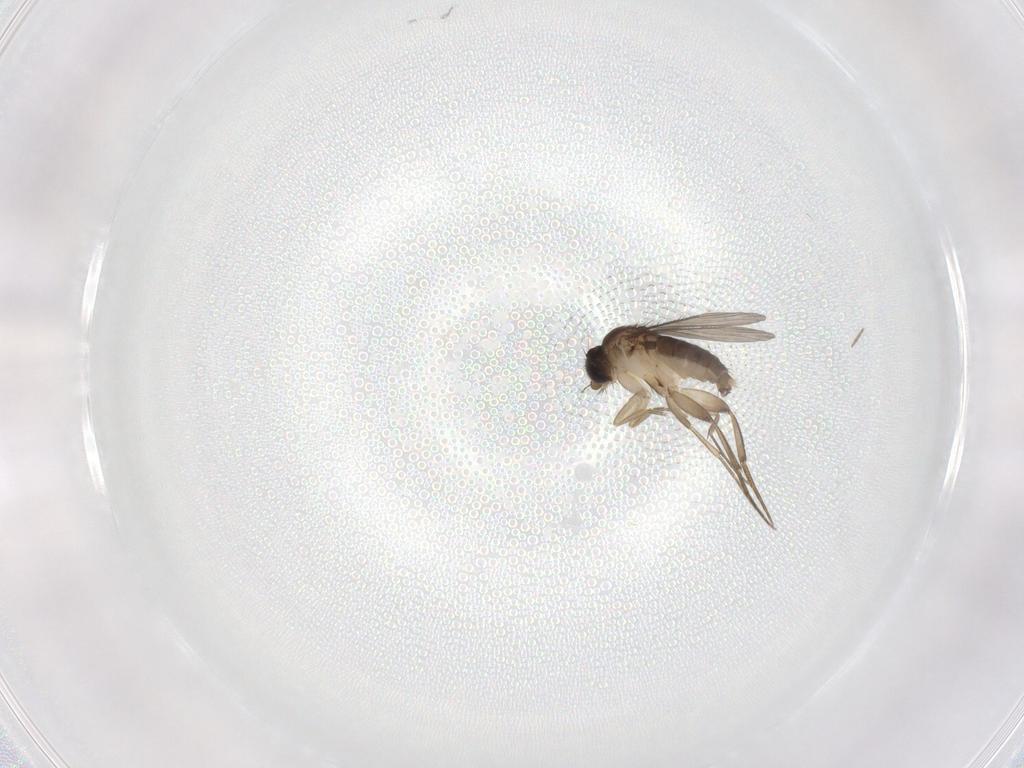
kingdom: Animalia
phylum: Arthropoda
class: Insecta
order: Diptera
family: Phoridae
